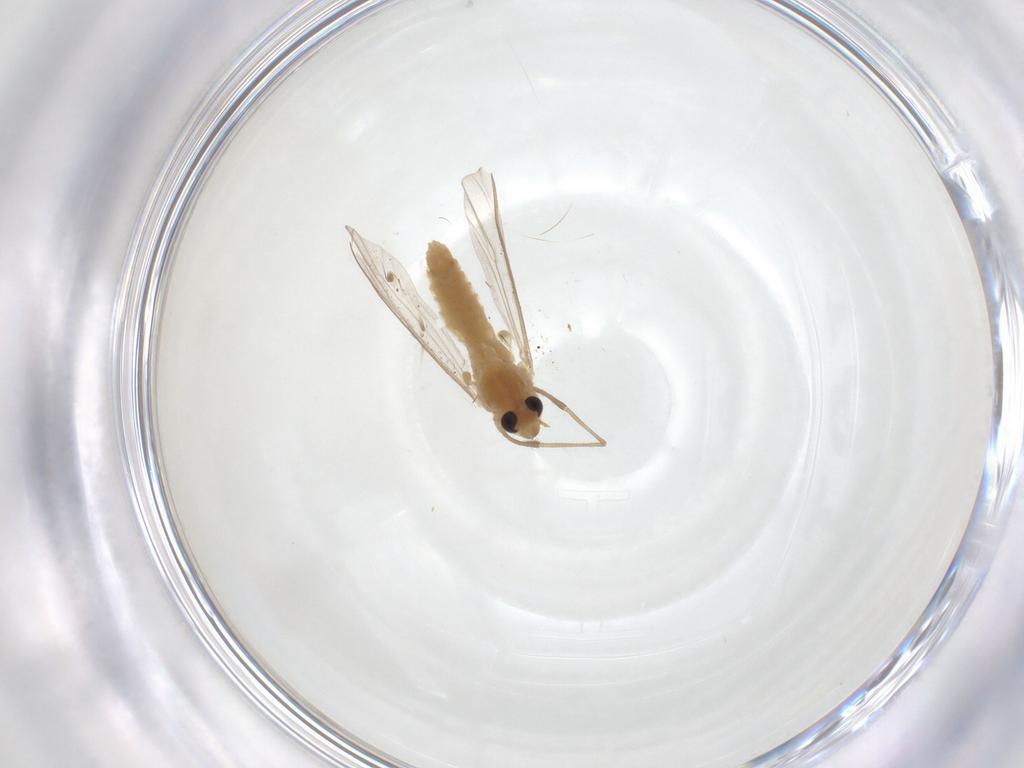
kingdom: Animalia
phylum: Arthropoda
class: Insecta
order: Diptera
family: Chironomidae
